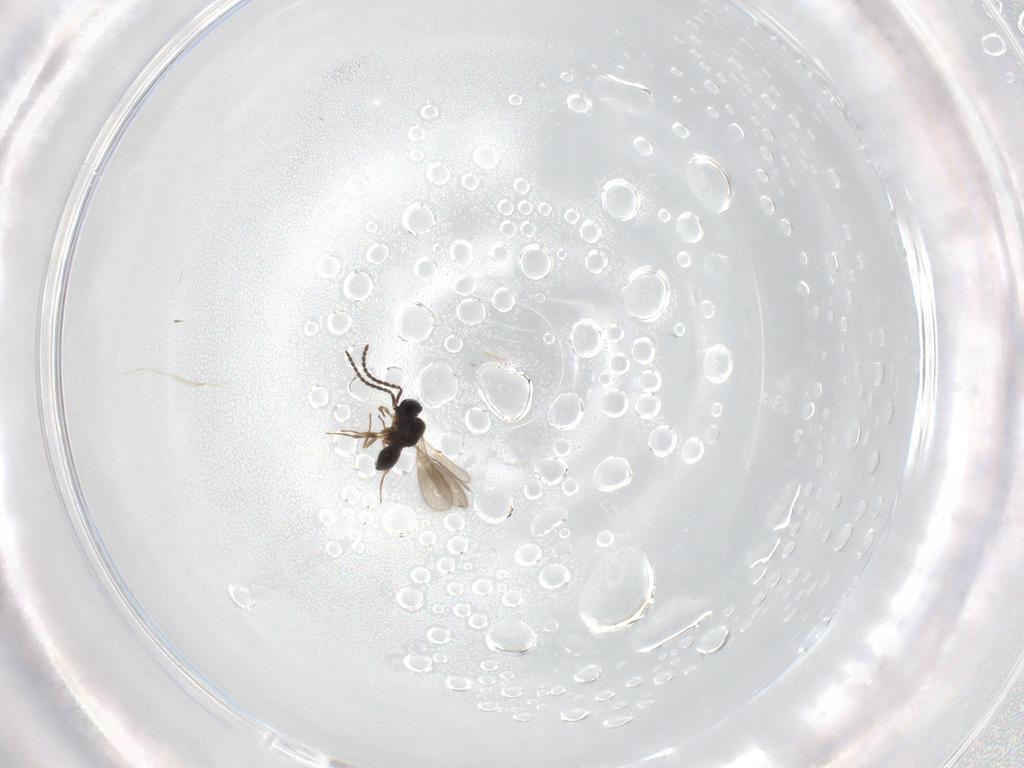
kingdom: Animalia
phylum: Arthropoda
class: Insecta
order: Hymenoptera
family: Scelionidae
